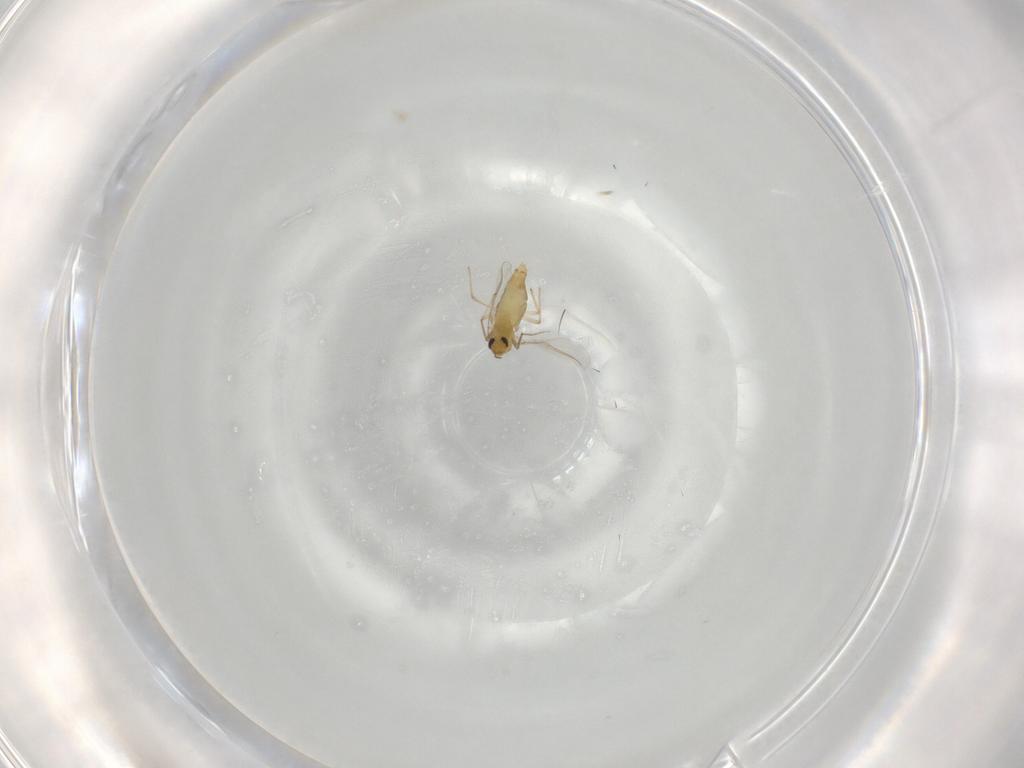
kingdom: Animalia
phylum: Arthropoda
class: Insecta
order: Diptera
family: Chironomidae
